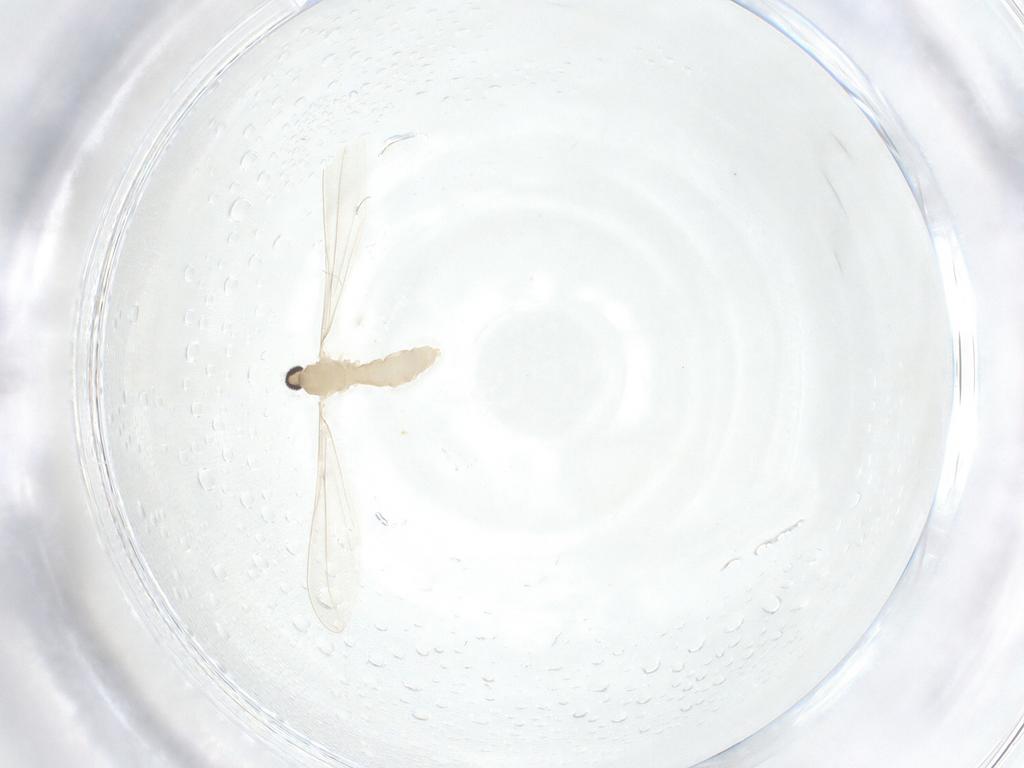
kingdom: Animalia
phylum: Arthropoda
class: Insecta
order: Diptera
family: Cecidomyiidae
